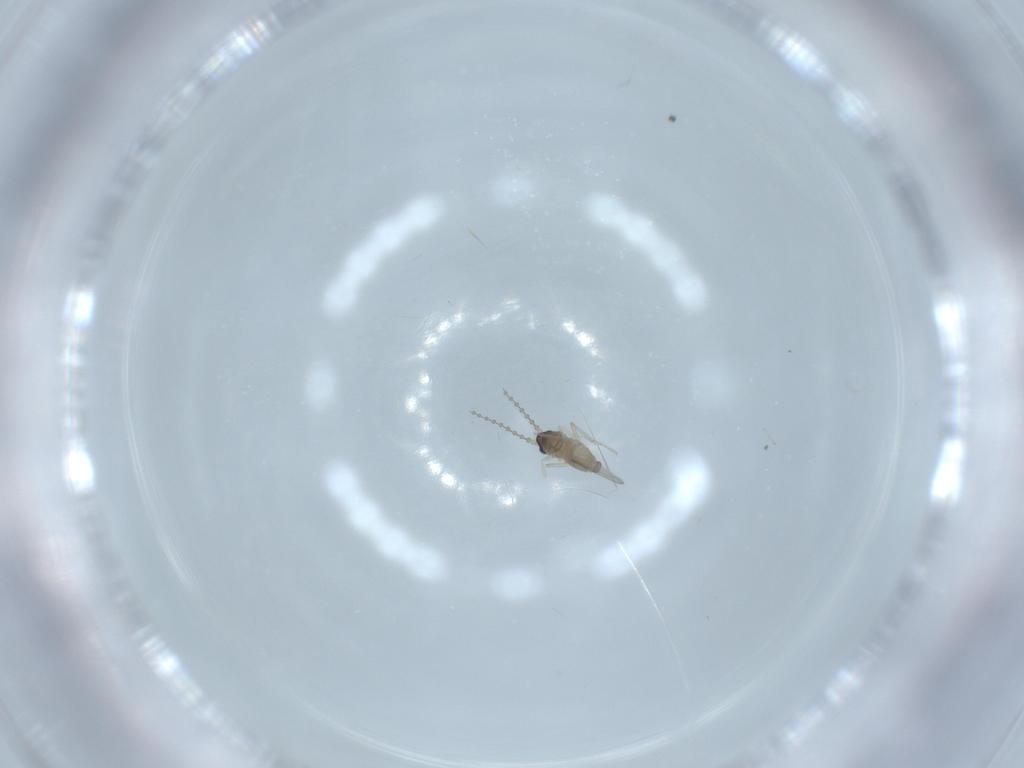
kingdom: Animalia
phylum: Arthropoda
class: Insecta
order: Diptera
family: Cecidomyiidae
